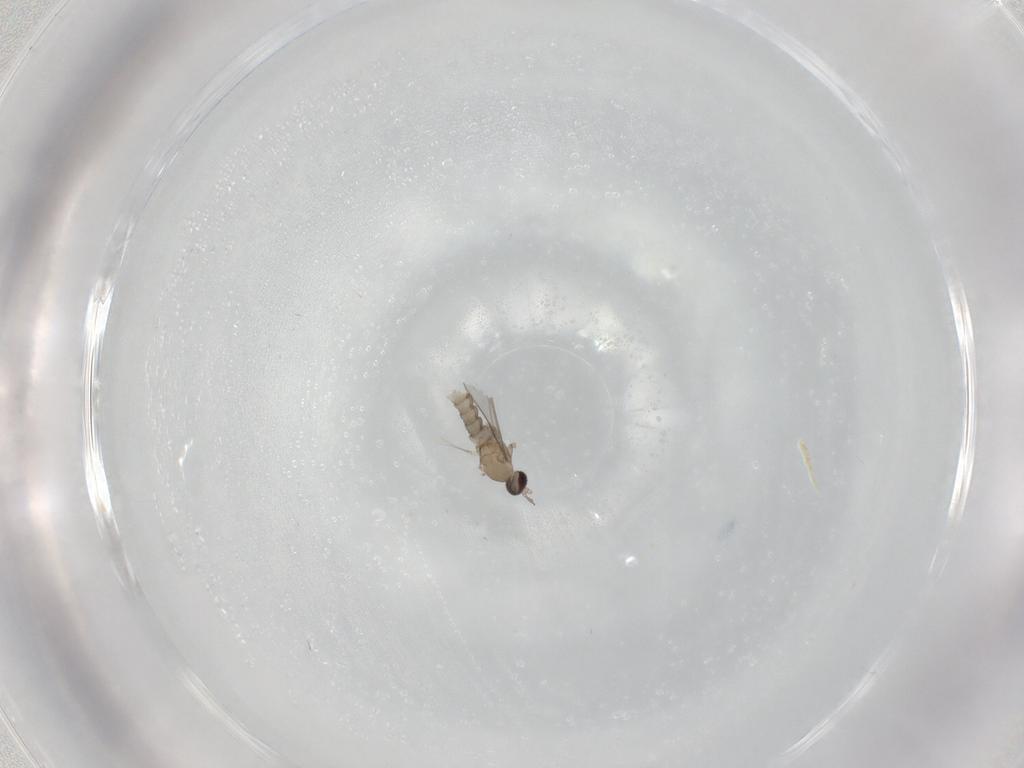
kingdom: Animalia
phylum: Arthropoda
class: Insecta
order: Diptera
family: Cecidomyiidae
